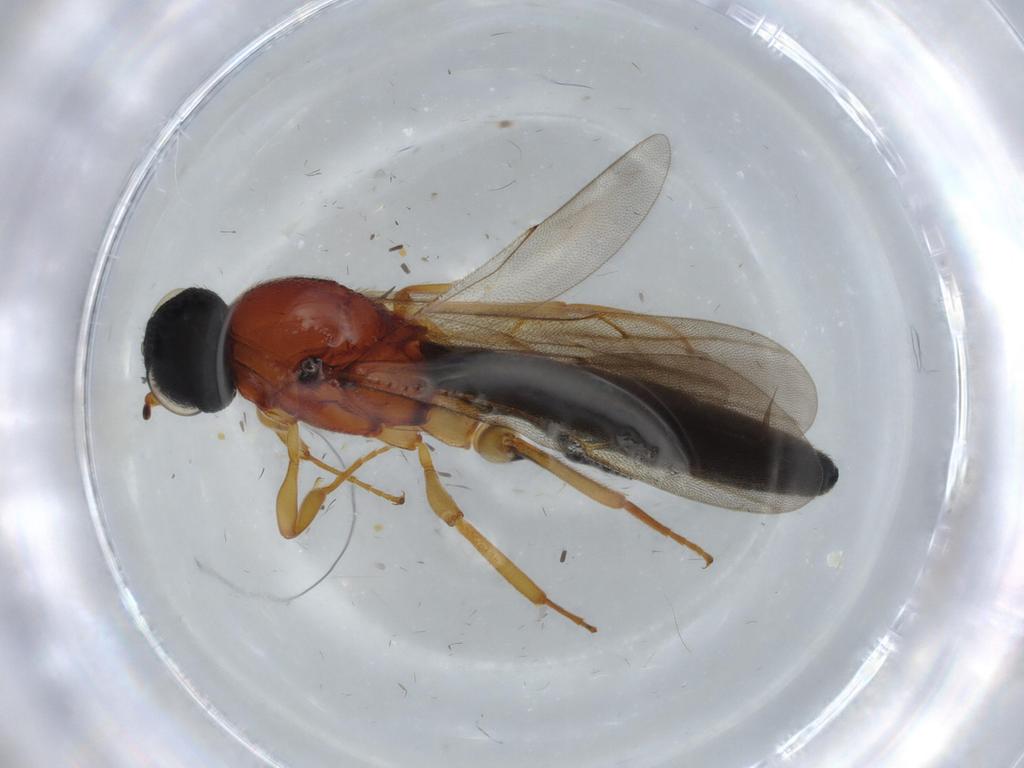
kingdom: Animalia
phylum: Arthropoda
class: Insecta
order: Hymenoptera
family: Scelionidae
